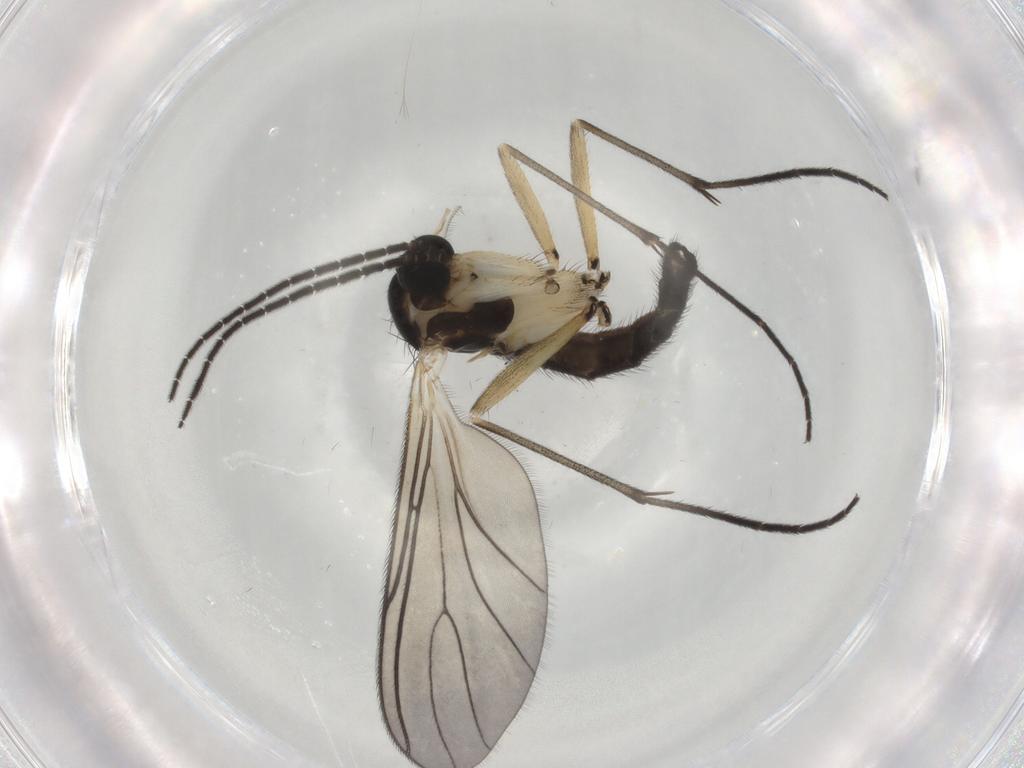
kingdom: Animalia
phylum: Arthropoda
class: Insecta
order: Diptera
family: Sciaridae
